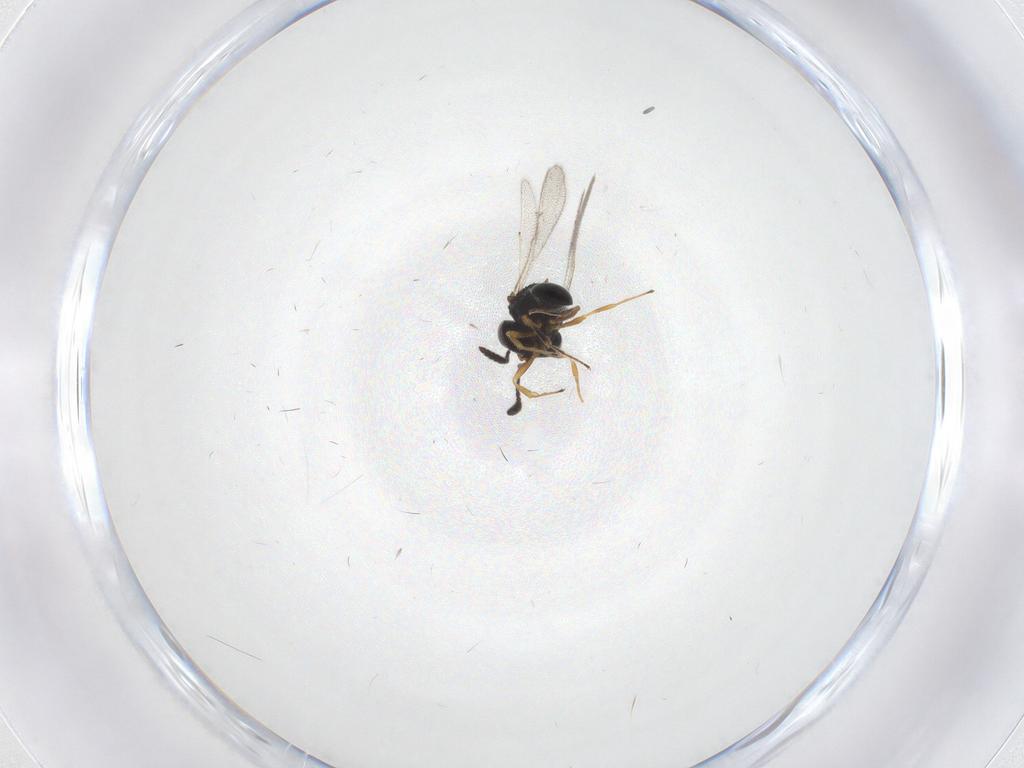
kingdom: Animalia
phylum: Arthropoda
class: Insecta
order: Hymenoptera
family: Scelionidae
